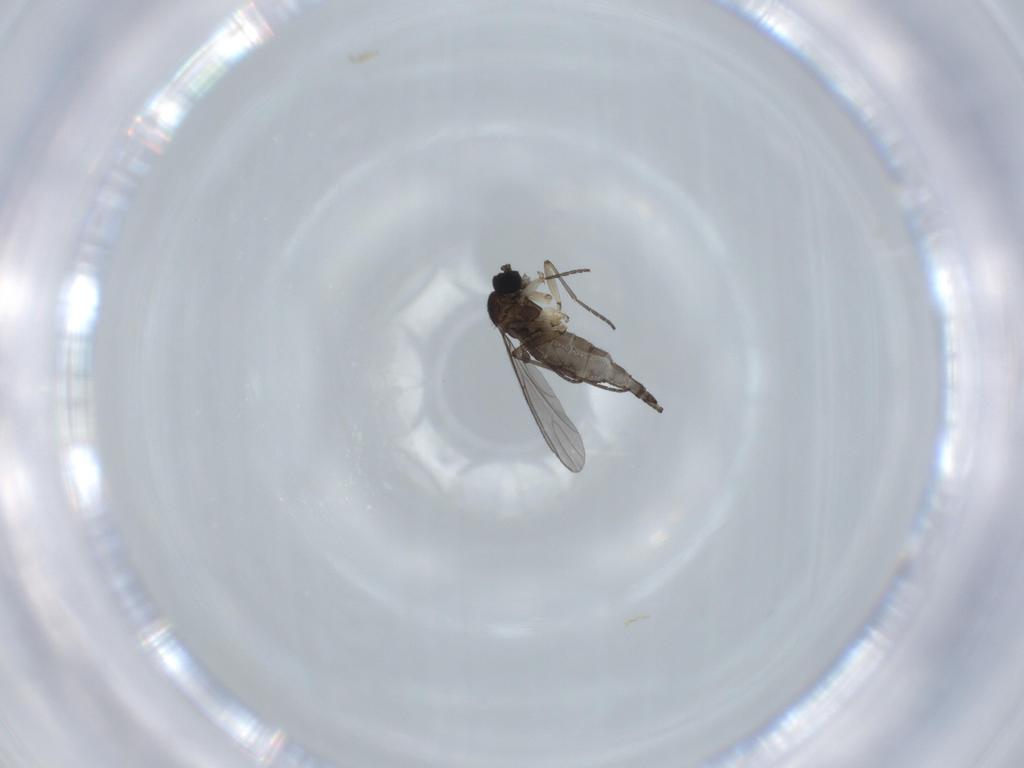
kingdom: Animalia
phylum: Arthropoda
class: Insecta
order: Diptera
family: Sciaridae
